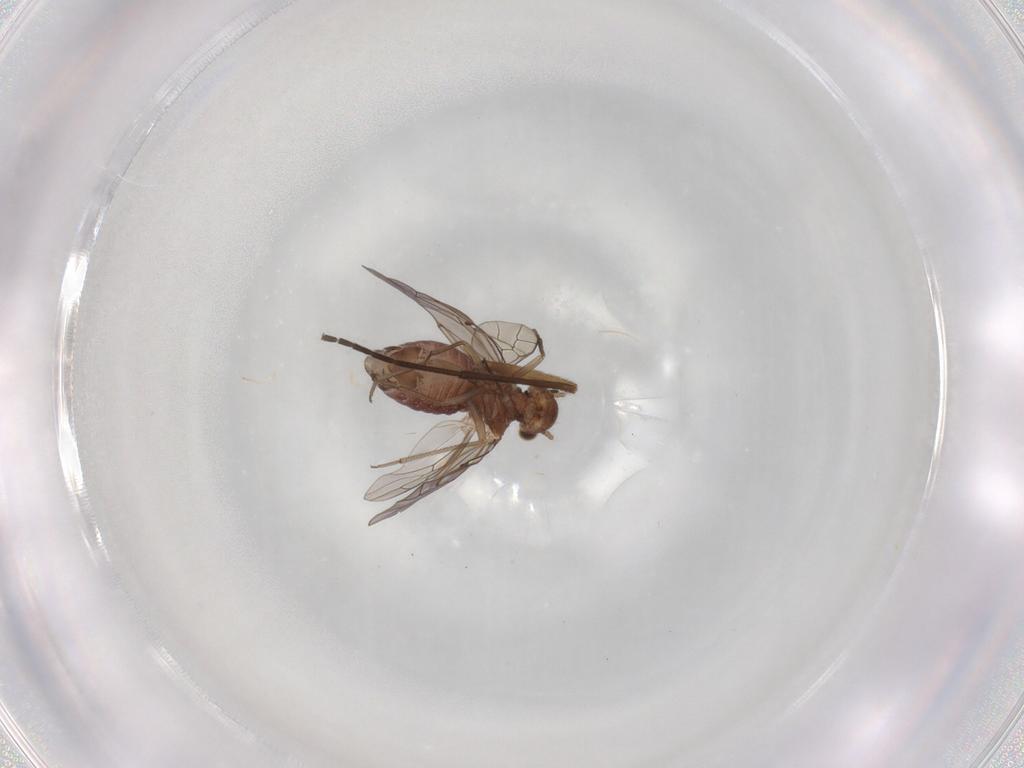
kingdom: Animalia
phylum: Arthropoda
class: Insecta
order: Psocodea
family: Lachesillidae
